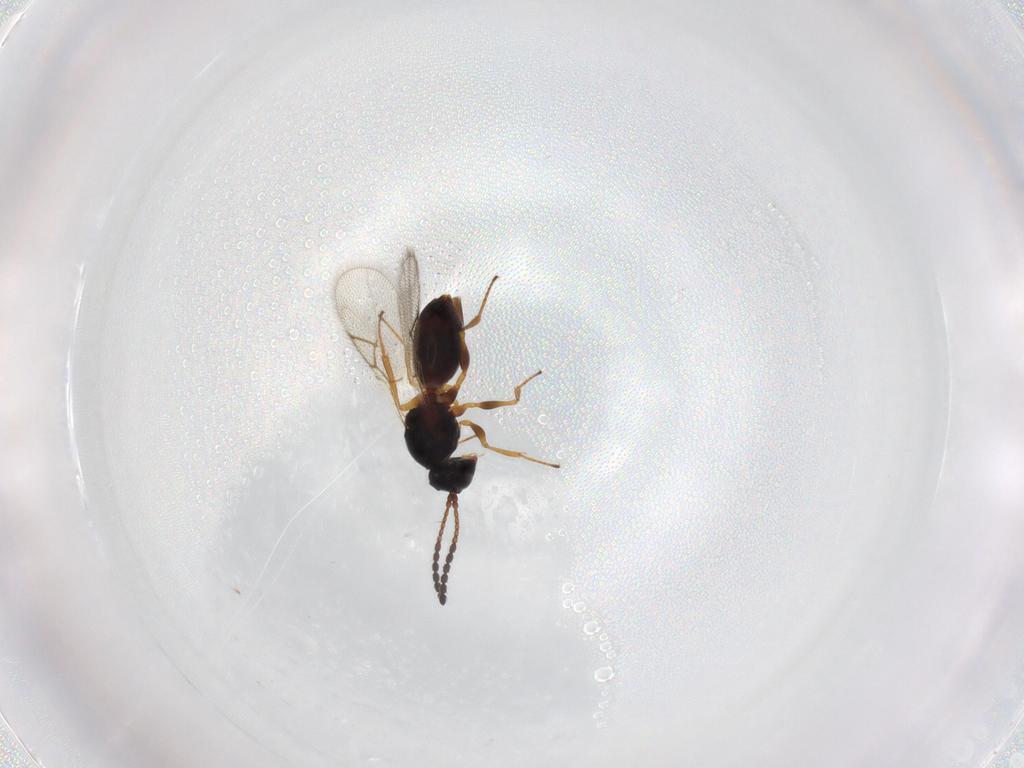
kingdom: Animalia
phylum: Arthropoda
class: Insecta
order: Hymenoptera
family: Figitidae
